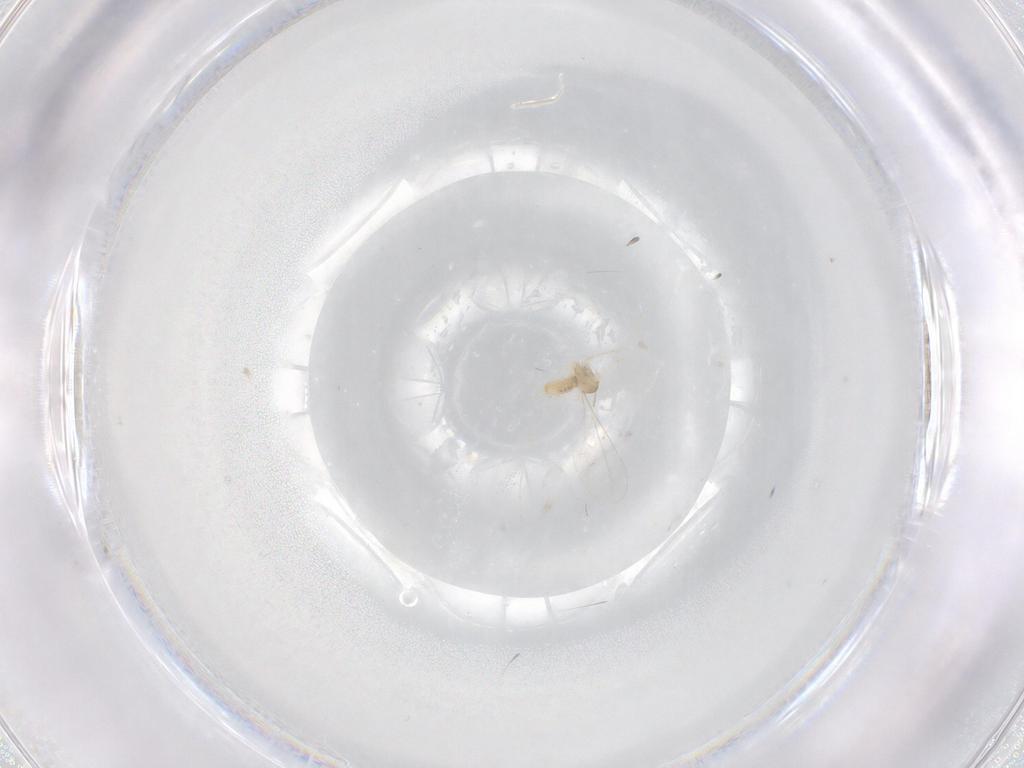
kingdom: Animalia
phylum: Arthropoda
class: Insecta
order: Diptera
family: Cecidomyiidae
